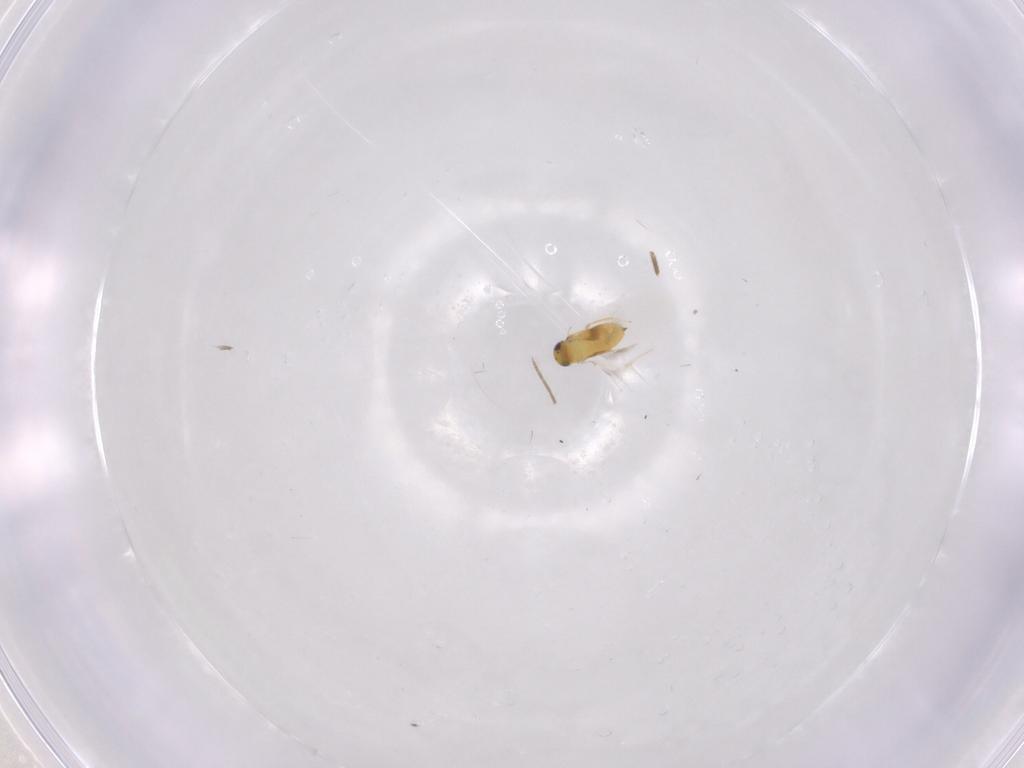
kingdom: Animalia
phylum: Arthropoda
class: Insecta
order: Hymenoptera
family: Signiphoridae
